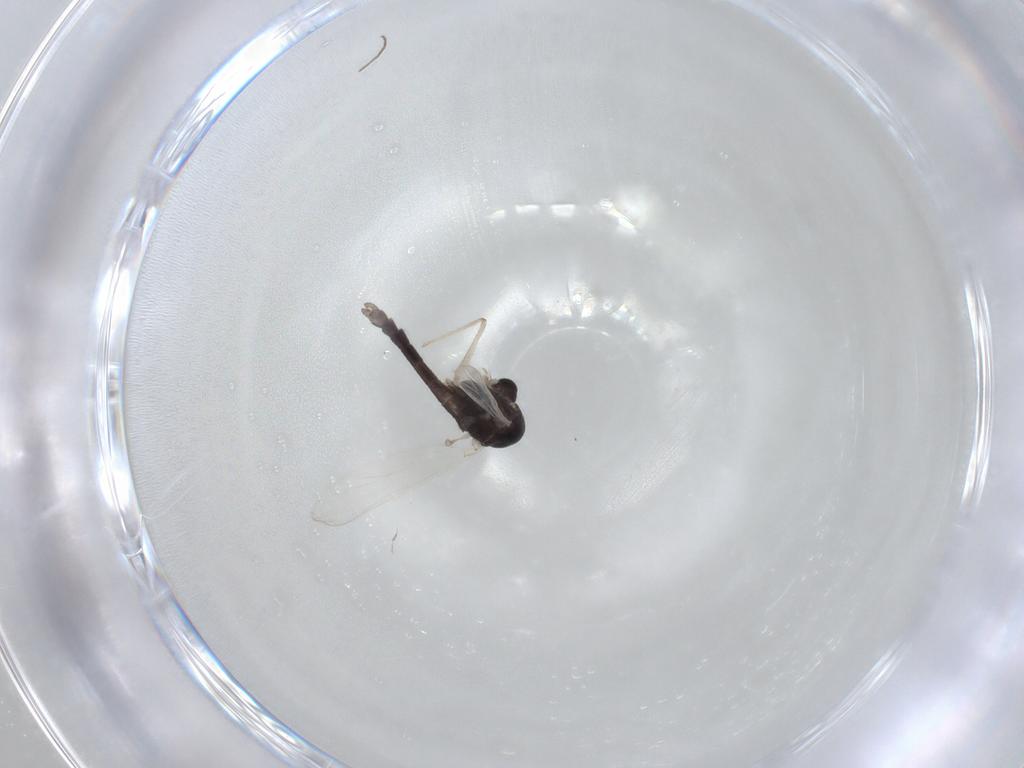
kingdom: Animalia
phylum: Arthropoda
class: Insecta
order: Diptera
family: Chironomidae
